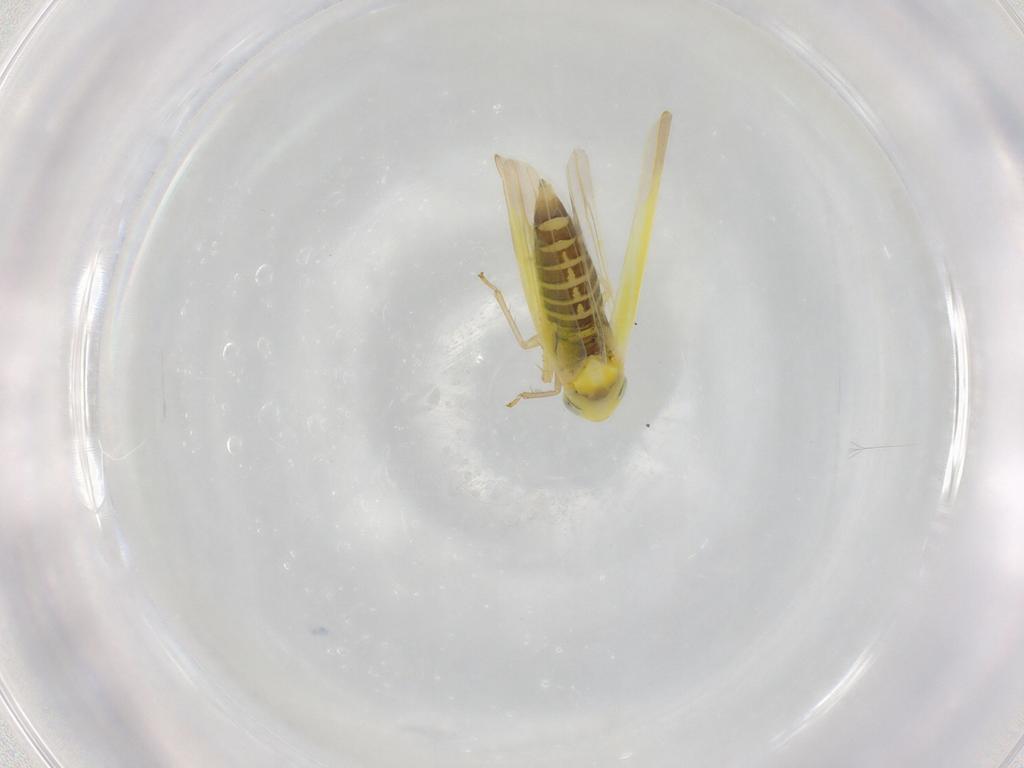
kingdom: Animalia
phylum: Arthropoda
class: Insecta
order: Hemiptera
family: Cicadellidae
